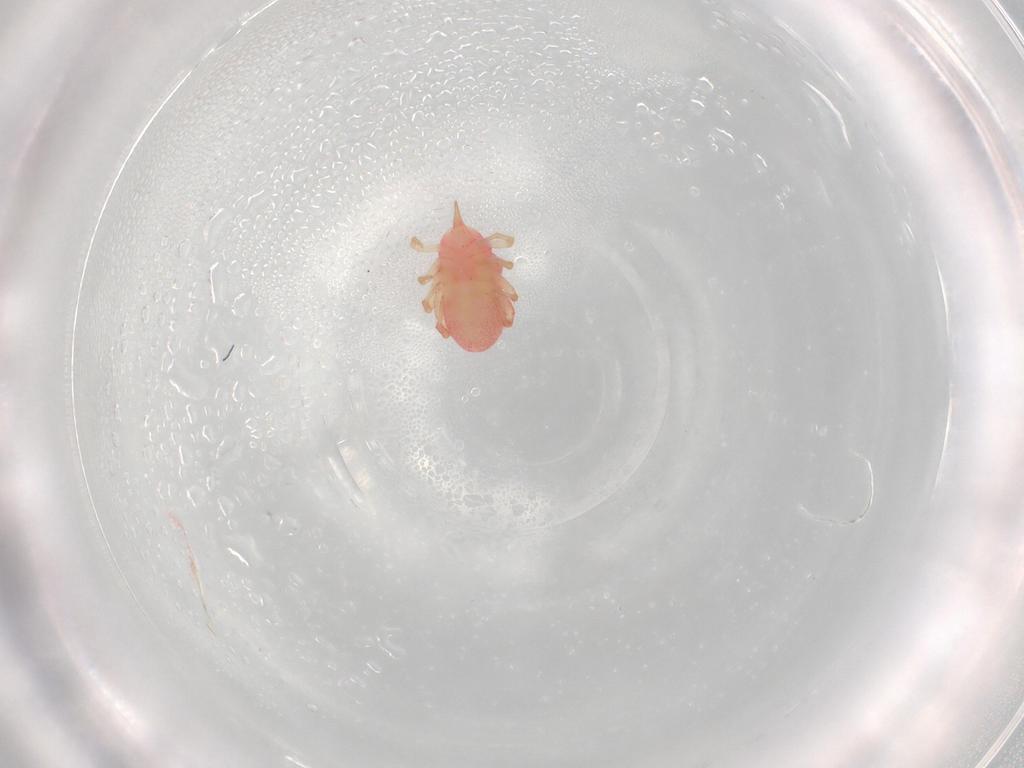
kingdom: Animalia
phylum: Arthropoda
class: Arachnida
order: Trombidiformes
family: Bdellidae
